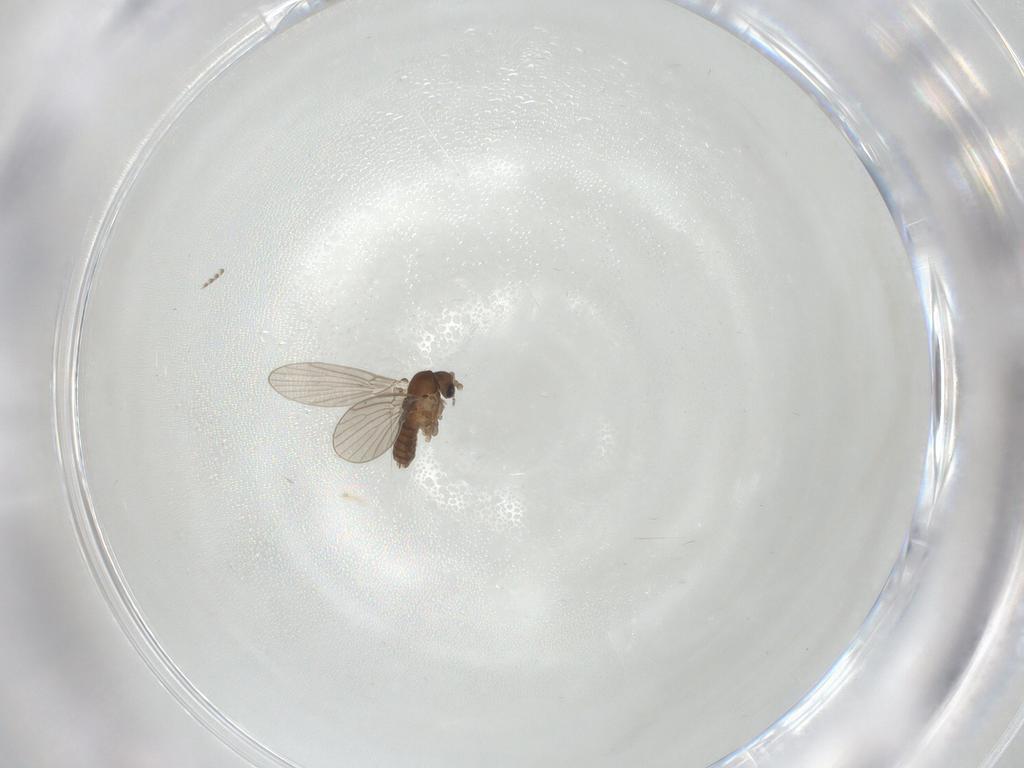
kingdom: Animalia
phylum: Arthropoda
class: Insecta
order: Diptera
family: Psychodidae
